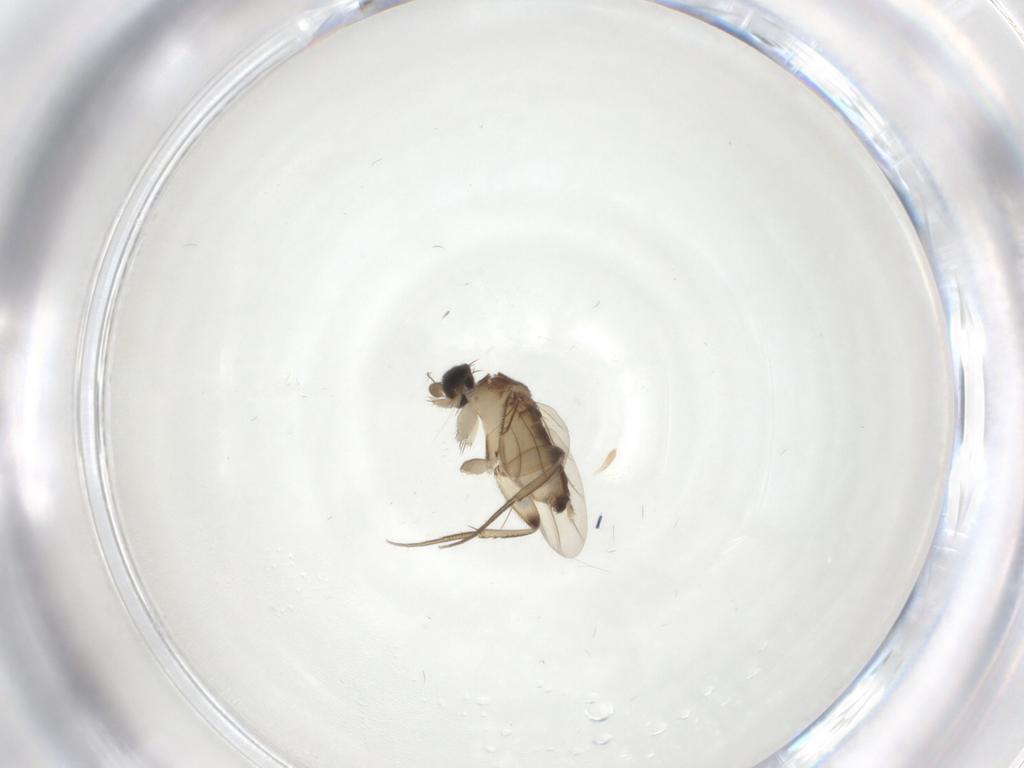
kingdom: Animalia
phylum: Arthropoda
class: Insecta
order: Diptera
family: Phoridae
